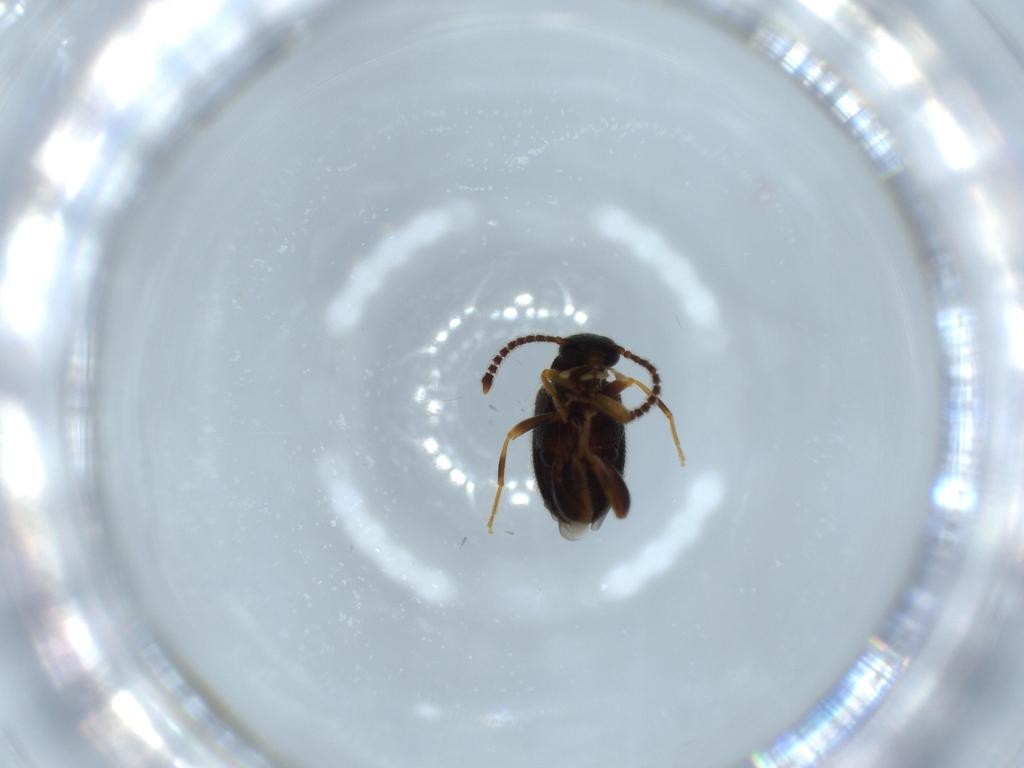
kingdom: Animalia
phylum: Arthropoda
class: Insecta
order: Coleoptera
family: Aderidae
